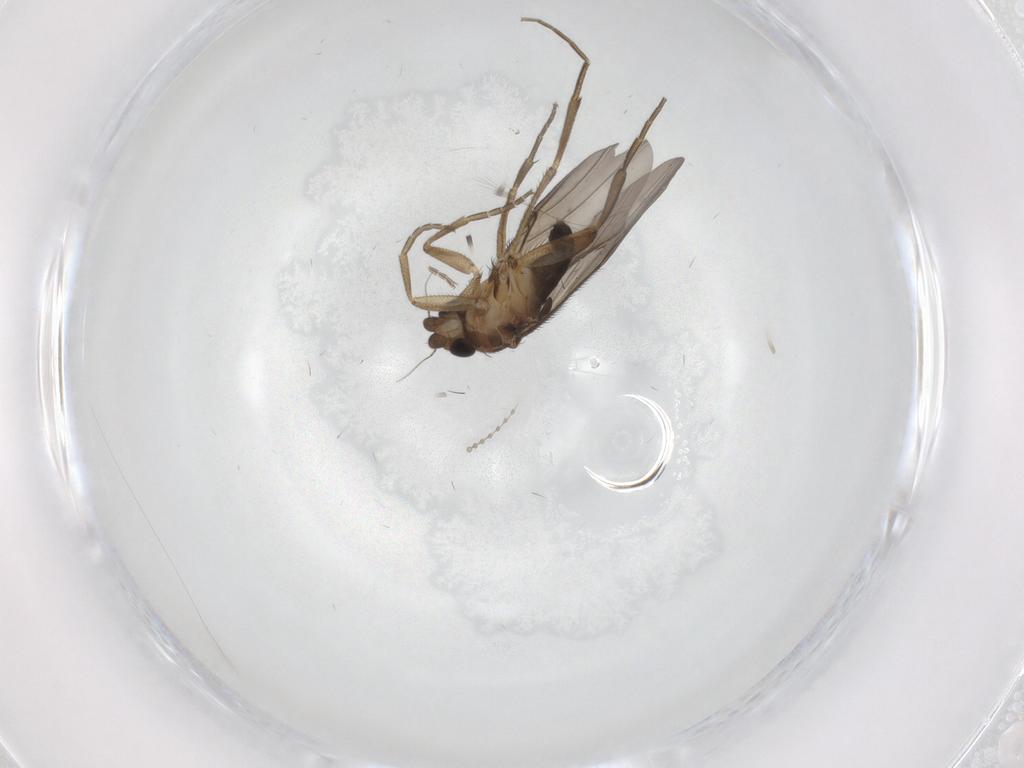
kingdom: Animalia
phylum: Arthropoda
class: Insecta
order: Diptera
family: Phoridae
